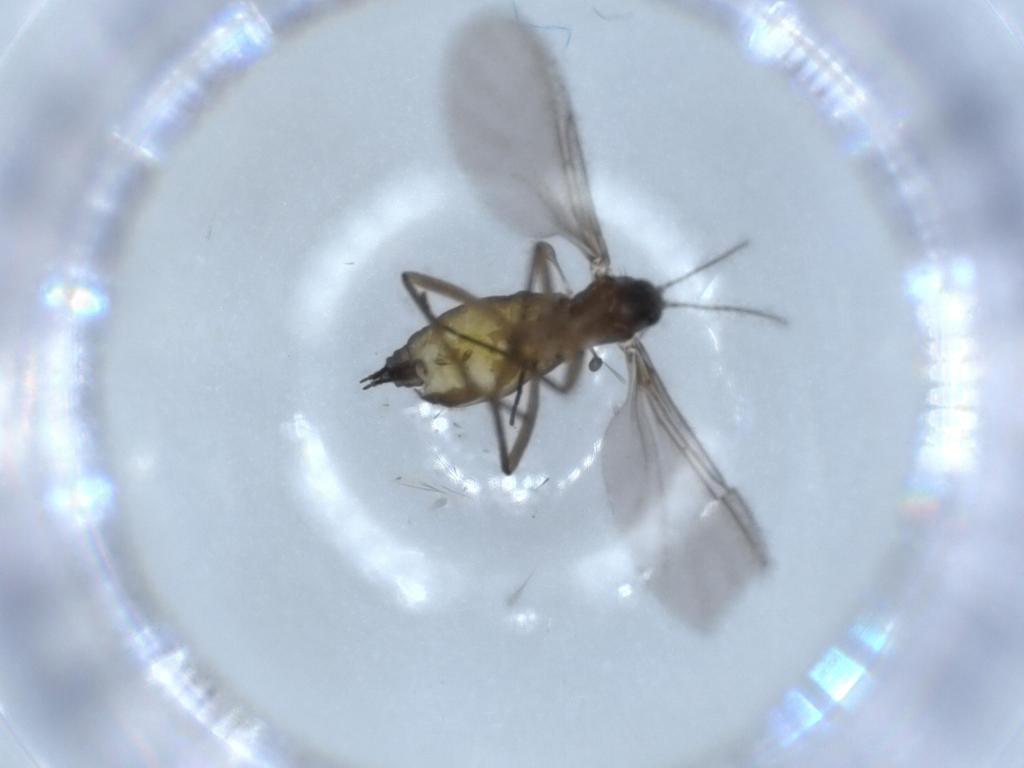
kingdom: Animalia
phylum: Arthropoda
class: Insecta
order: Diptera
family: Sciaridae
